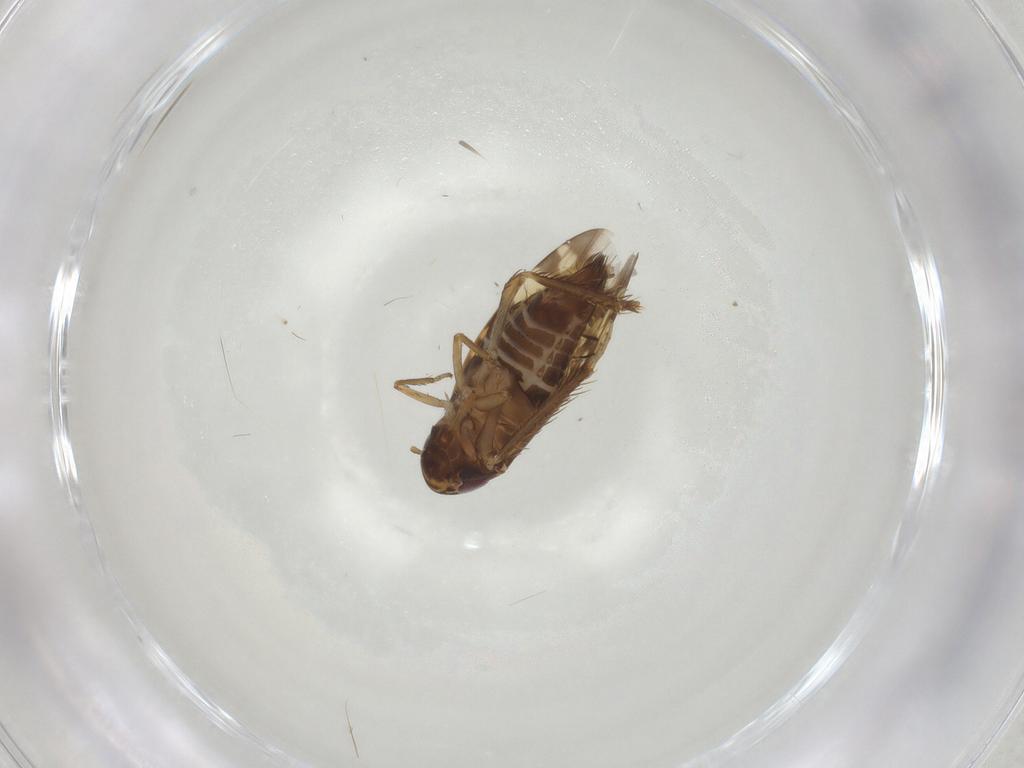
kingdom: Animalia
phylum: Arthropoda
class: Insecta
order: Hemiptera
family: Cicadellidae
